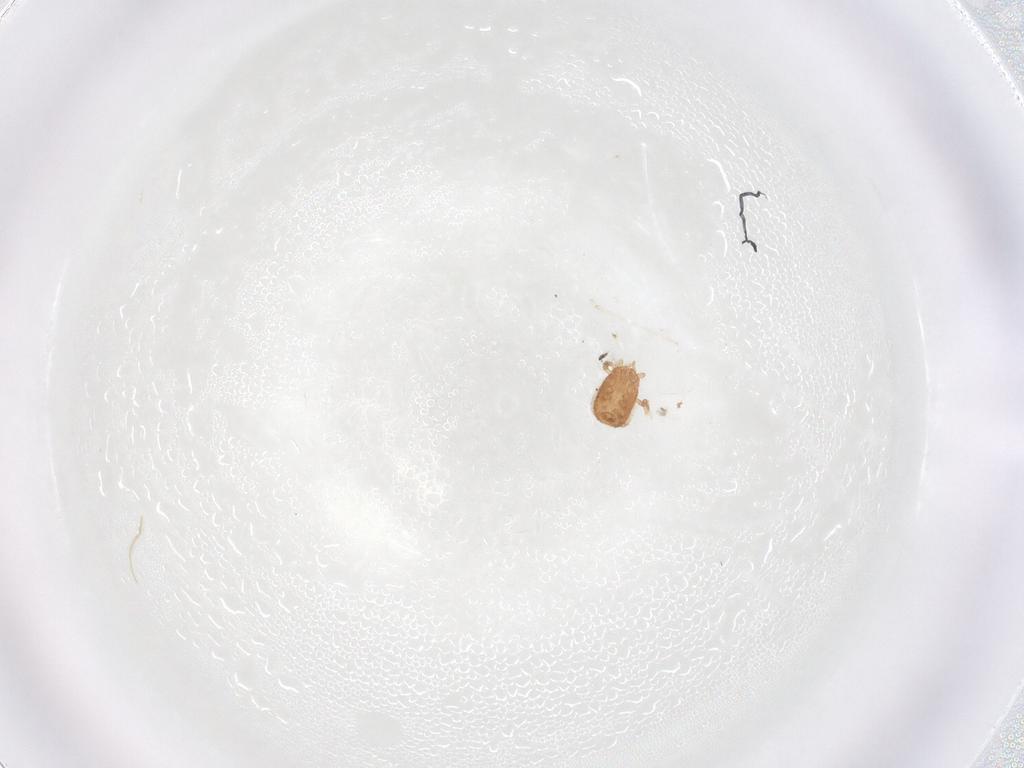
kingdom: Animalia
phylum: Arthropoda
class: Arachnida
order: Mesostigmata
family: Blattisociidae
